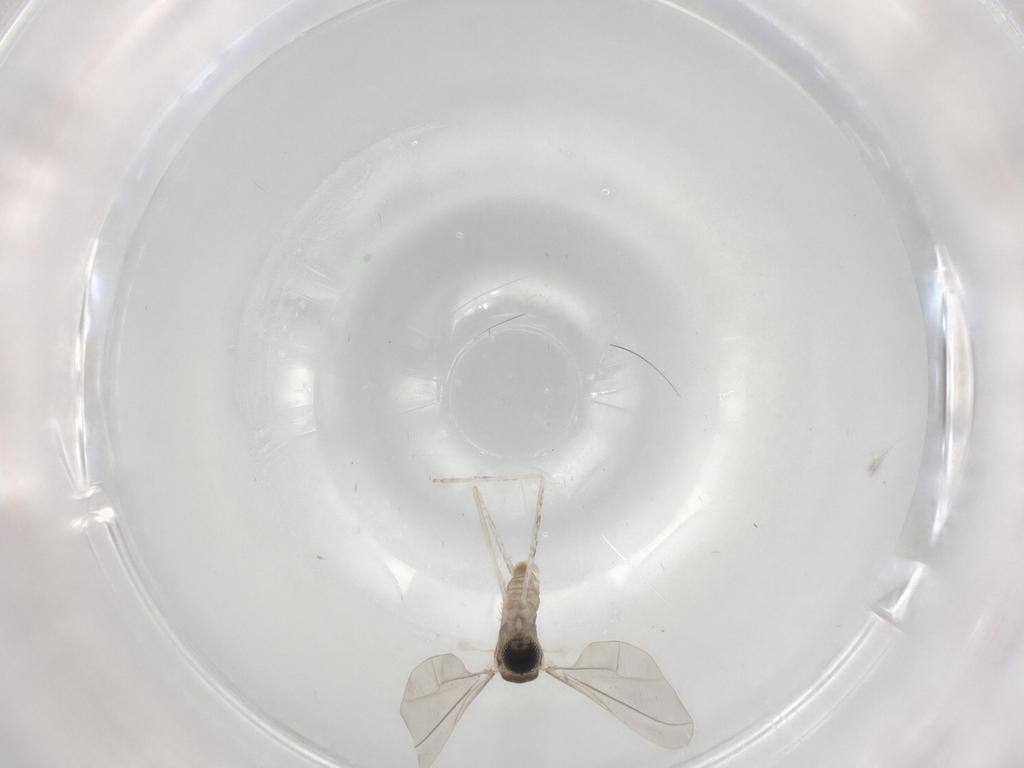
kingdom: Animalia
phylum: Arthropoda
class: Insecta
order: Diptera
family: Cecidomyiidae
